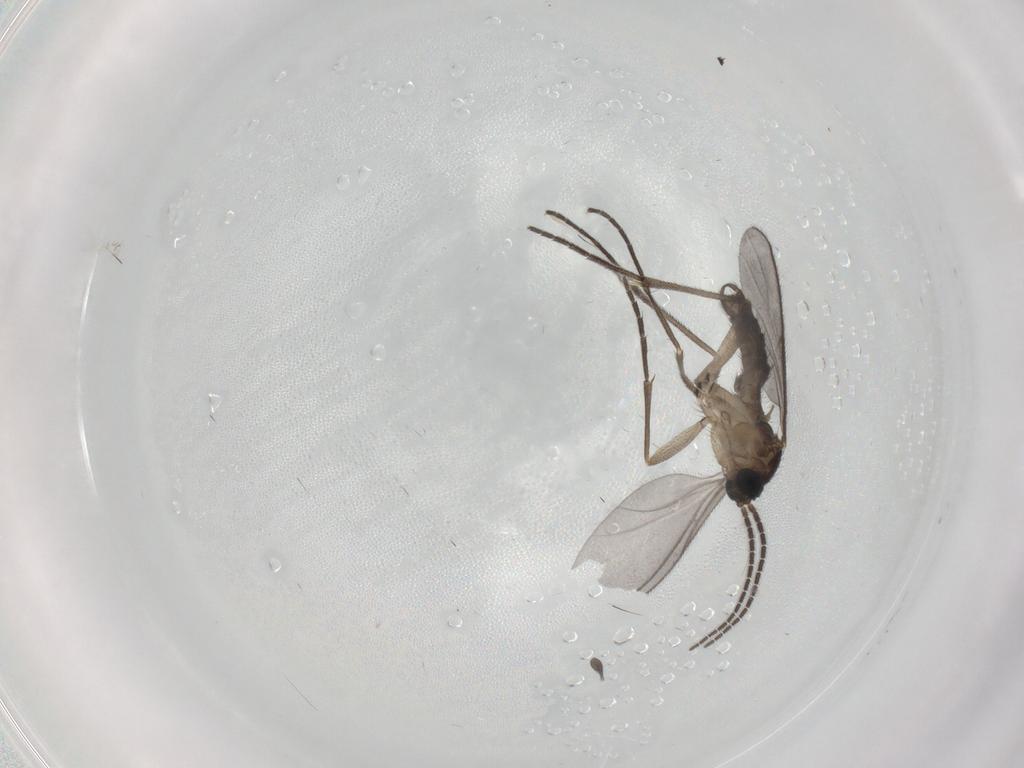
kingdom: Animalia
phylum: Arthropoda
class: Insecta
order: Diptera
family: Sciaridae
